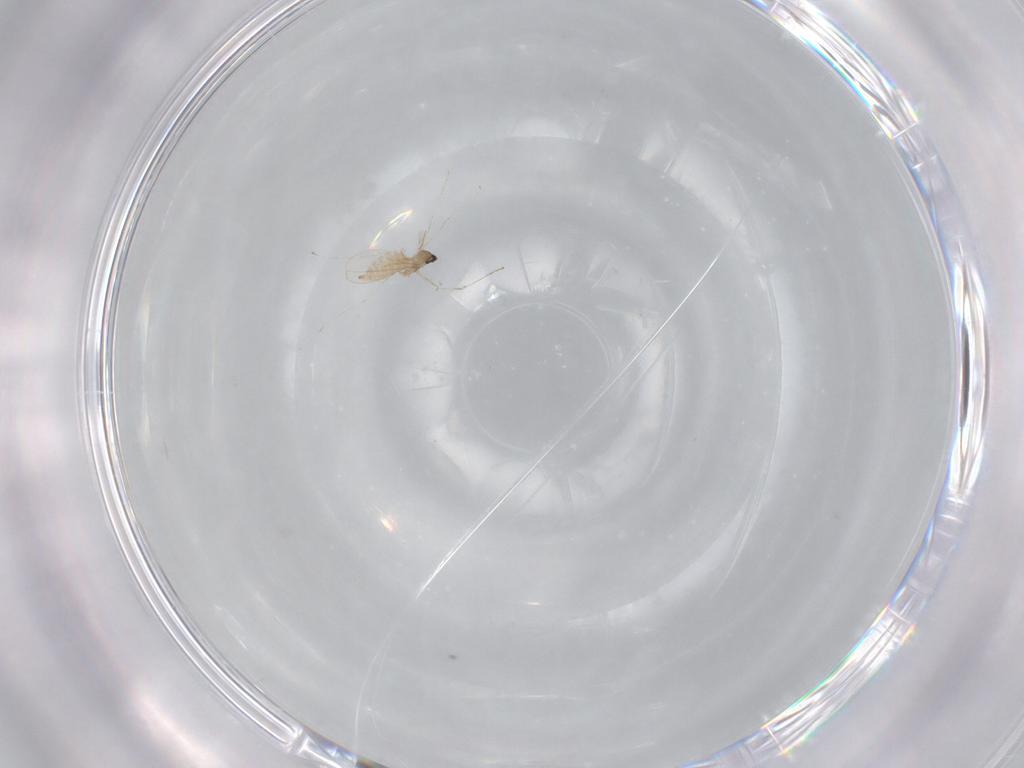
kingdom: Animalia
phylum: Arthropoda
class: Insecta
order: Diptera
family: Cecidomyiidae
